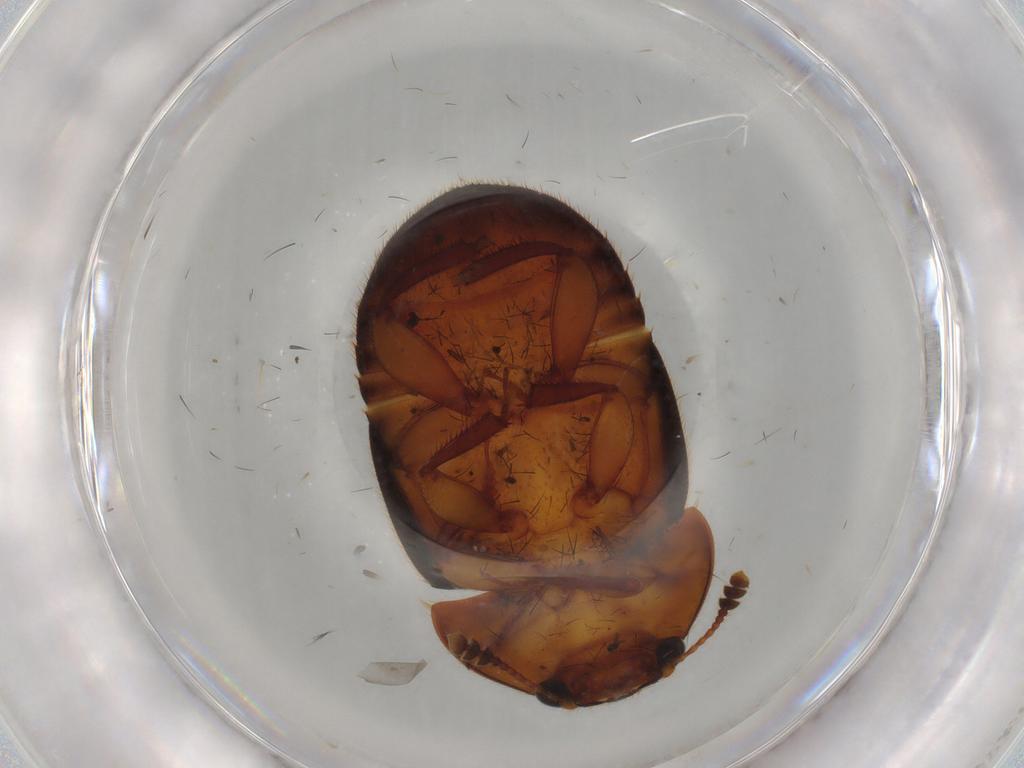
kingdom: Animalia
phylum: Arthropoda
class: Insecta
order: Coleoptera
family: Nitidulidae
